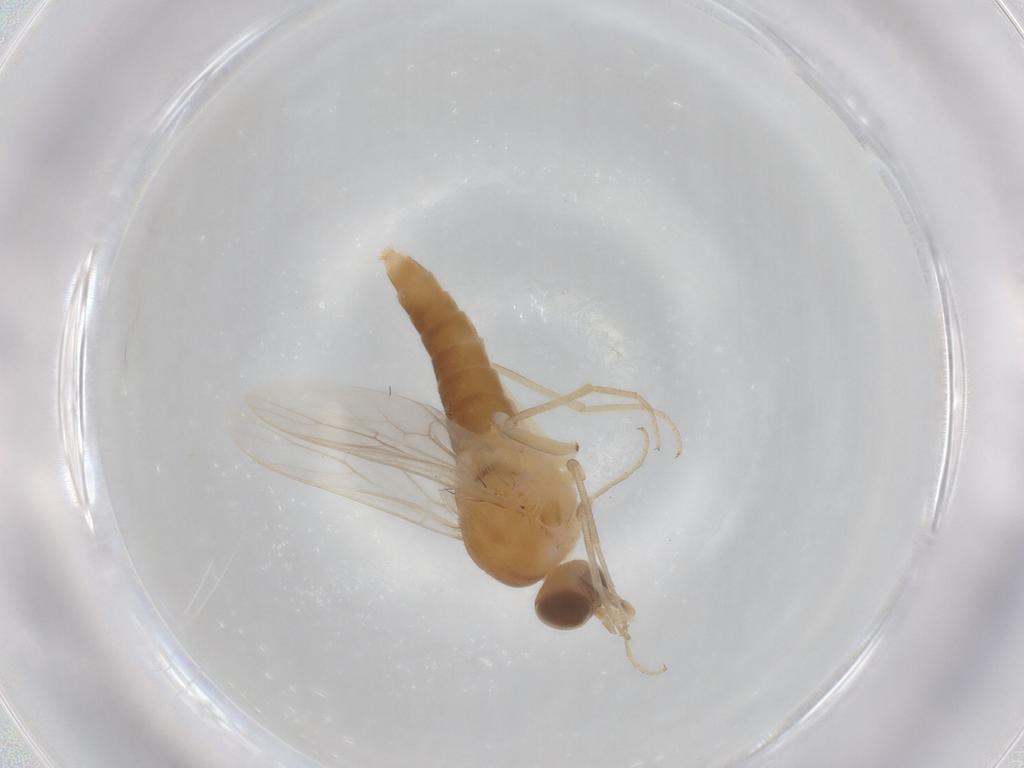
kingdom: Animalia
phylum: Arthropoda
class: Insecta
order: Diptera
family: Scenopinidae
